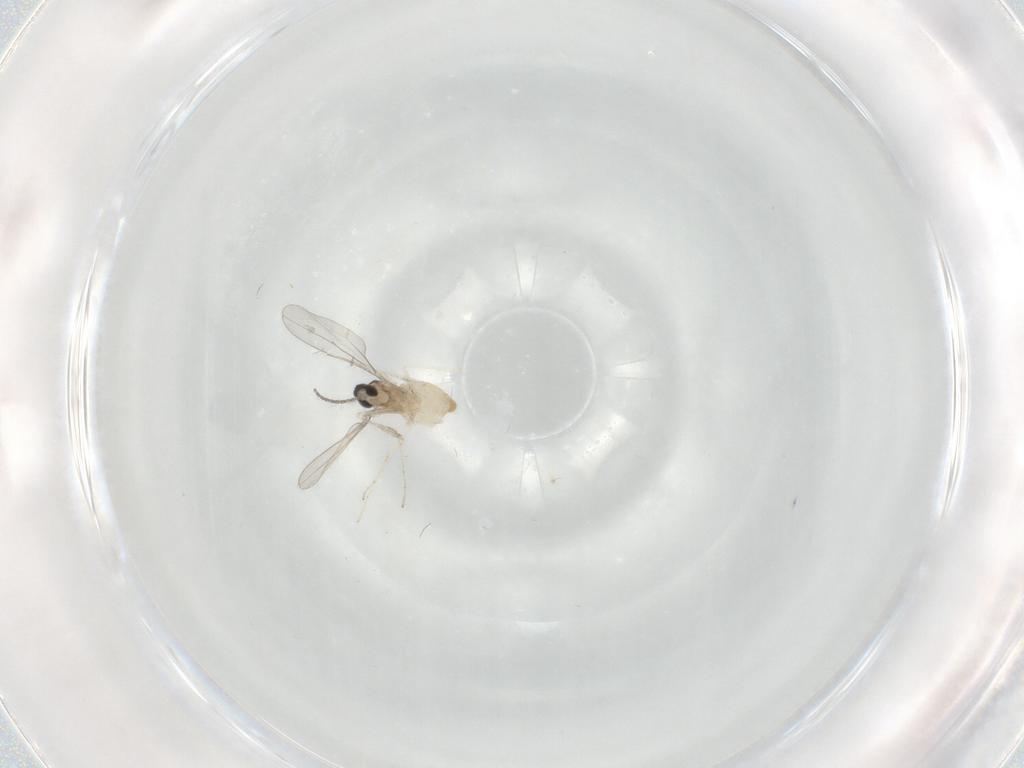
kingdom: Animalia
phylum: Arthropoda
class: Insecta
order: Diptera
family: Cecidomyiidae
